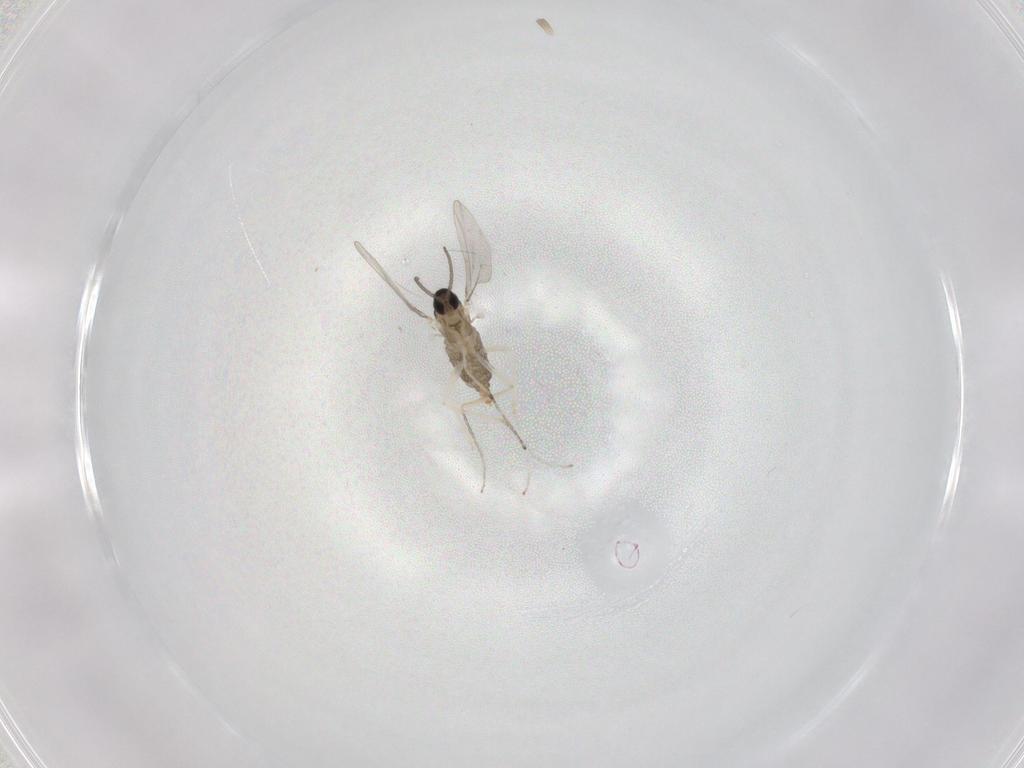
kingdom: Animalia
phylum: Arthropoda
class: Insecta
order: Diptera
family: Cecidomyiidae
